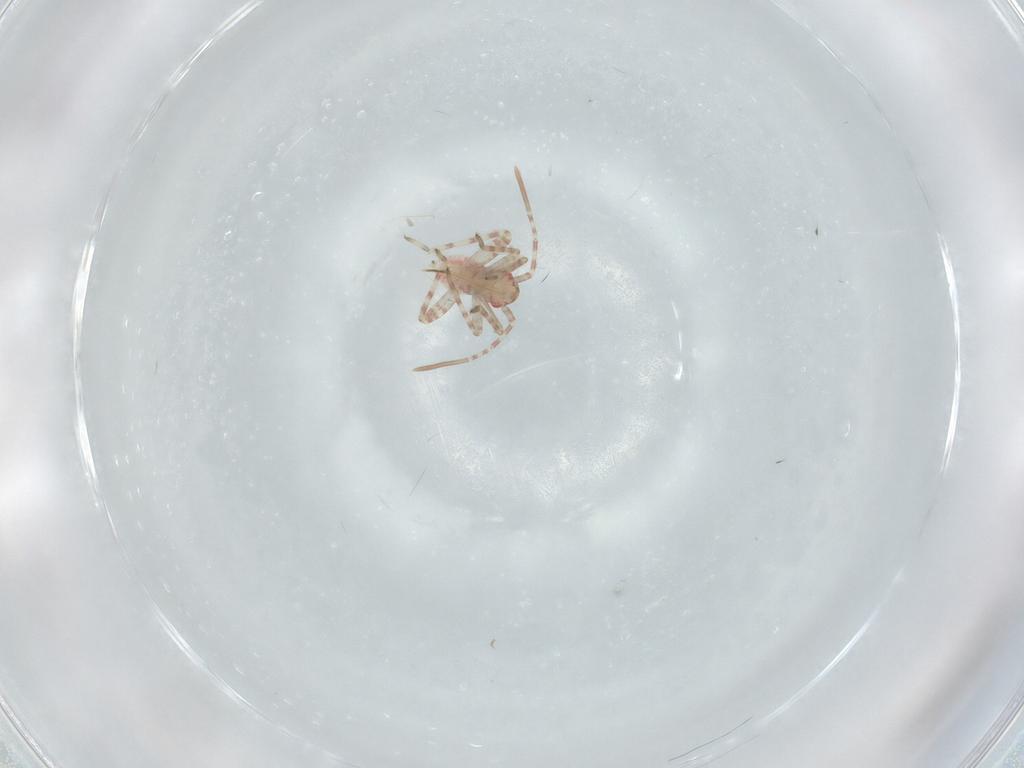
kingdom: Animalia
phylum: Arthropoda
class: Insecta
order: Hemiptera
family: Miridae
